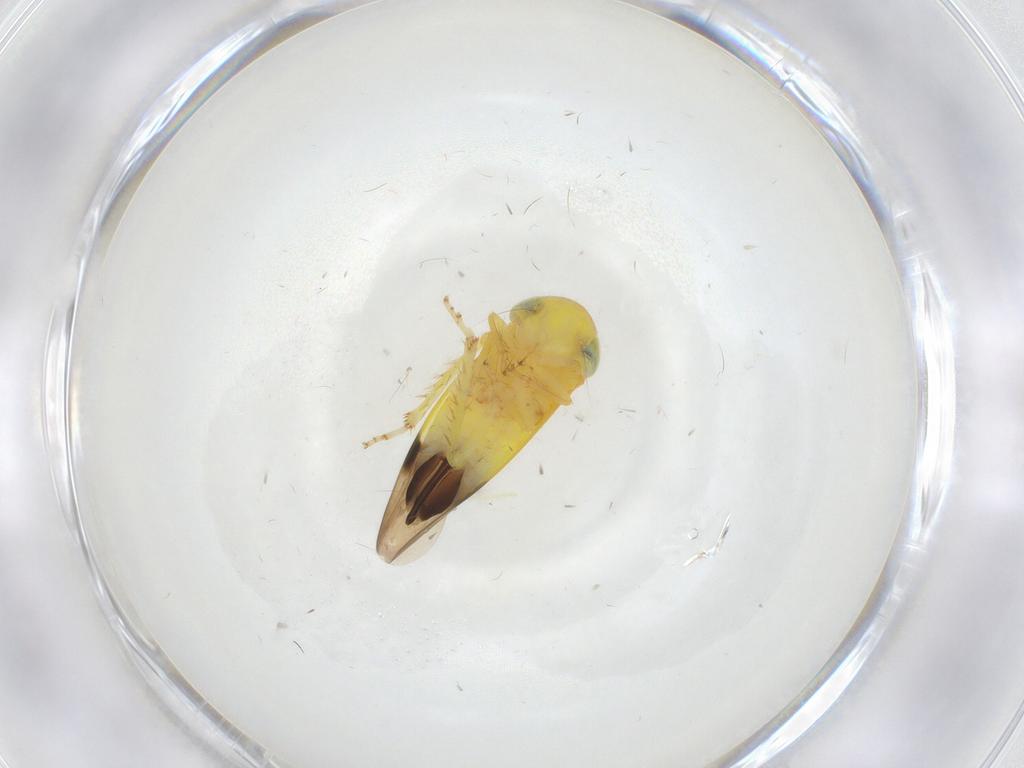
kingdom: Animalia
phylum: Arthropoda
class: Insecta
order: Hemiptera
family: Cicadellidae
